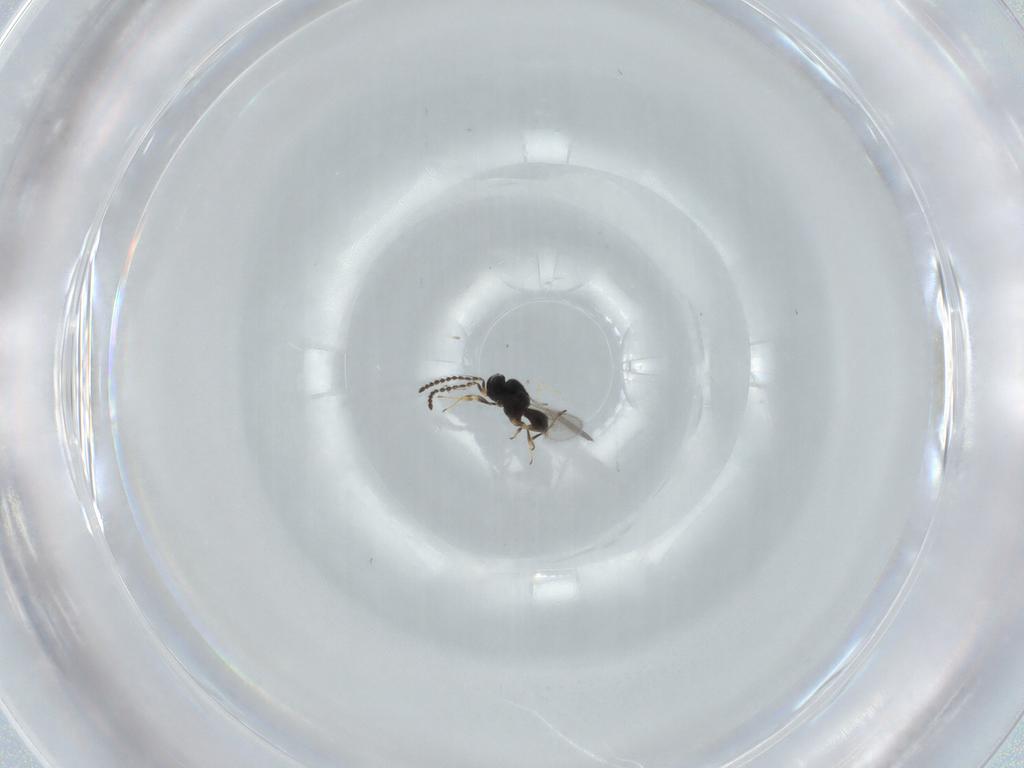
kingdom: Animalia
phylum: Arthropoda
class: Insecta
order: Hymenoptera
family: Scelionidae
